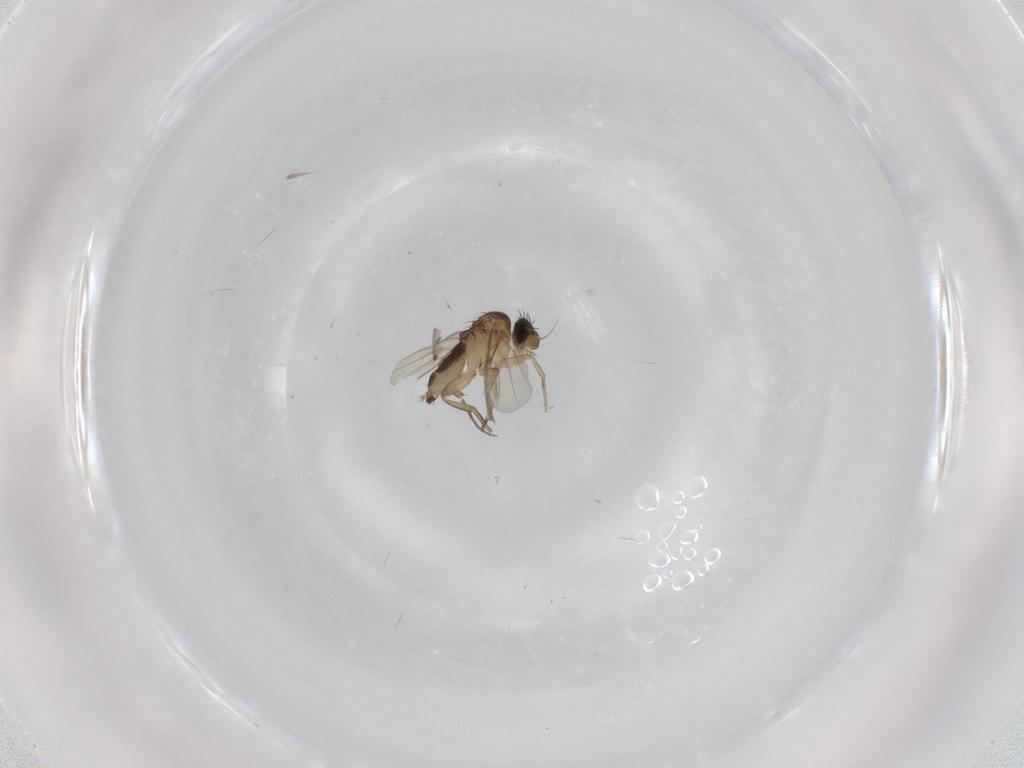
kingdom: Animalia
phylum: Arthropoda
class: Insecta
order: Diptera
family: Phoridae
